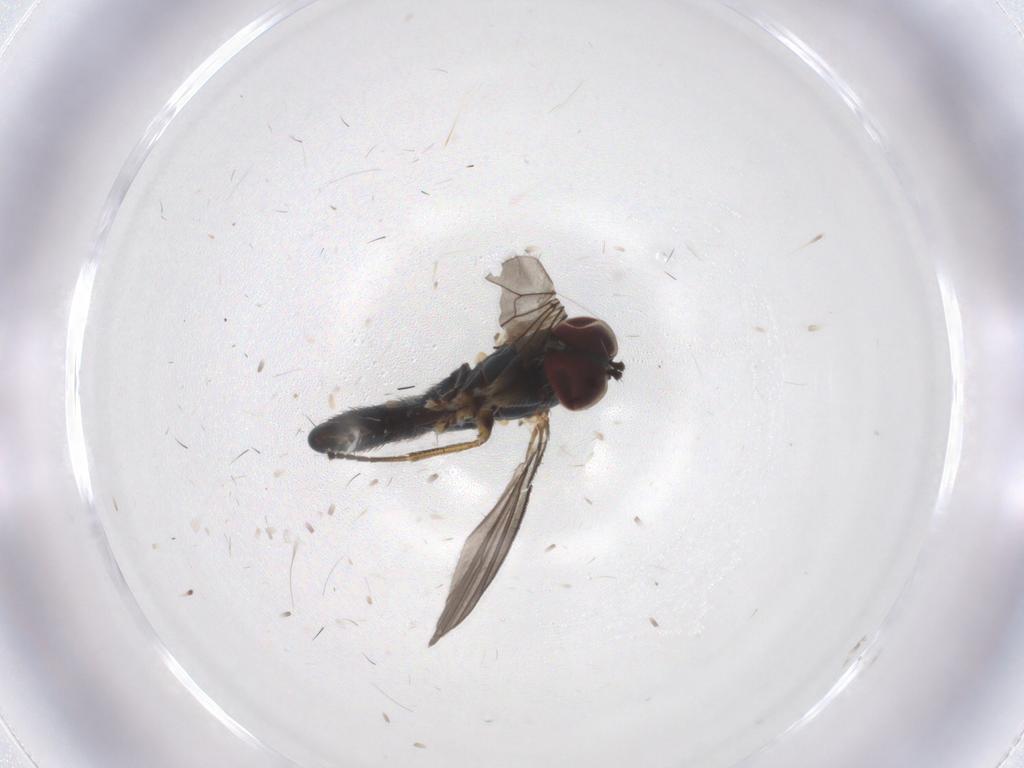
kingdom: Animalia
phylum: Arthropoda
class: Insecta
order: Diptera
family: Dolichopodidae
